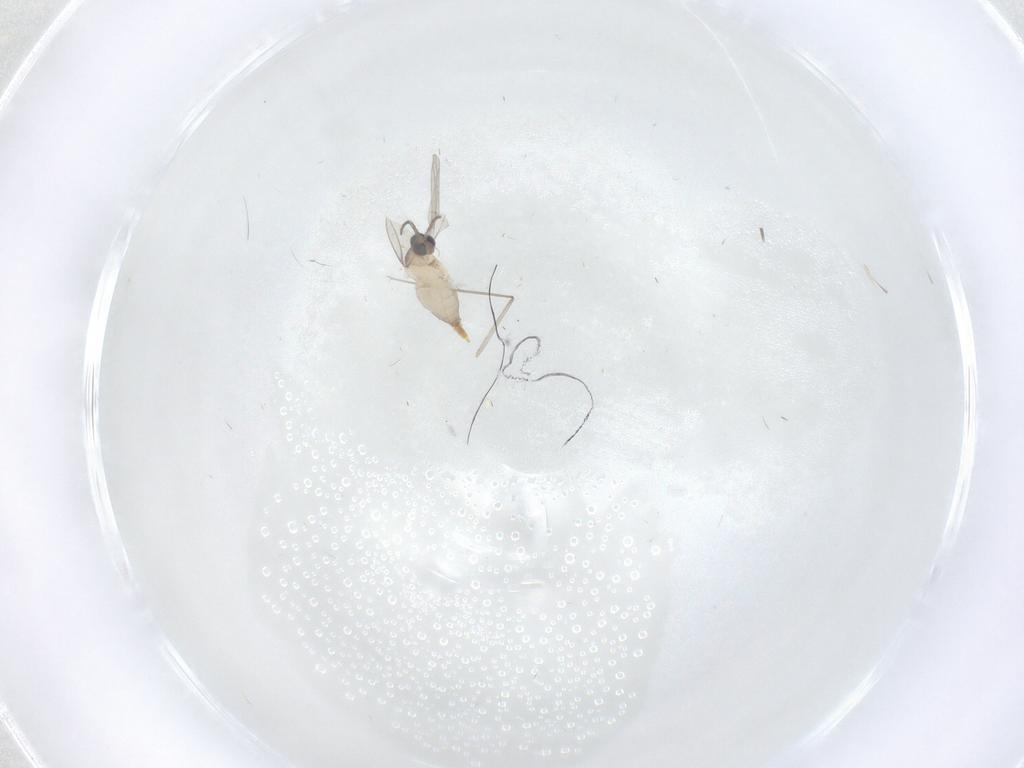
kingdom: Animalia
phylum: Arthropoda
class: Insecta
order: Diptera
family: Cecidomyiidae
